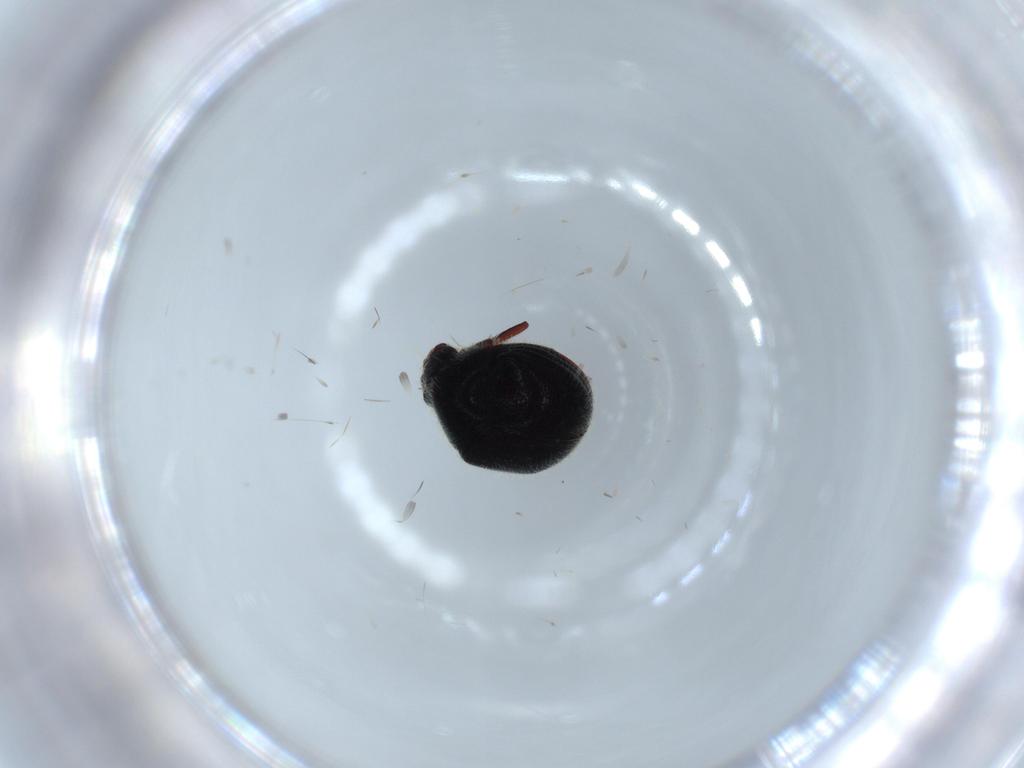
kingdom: Animalia
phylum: Arthropoda
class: Insecta
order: Coleoptera
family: Ptinidae
